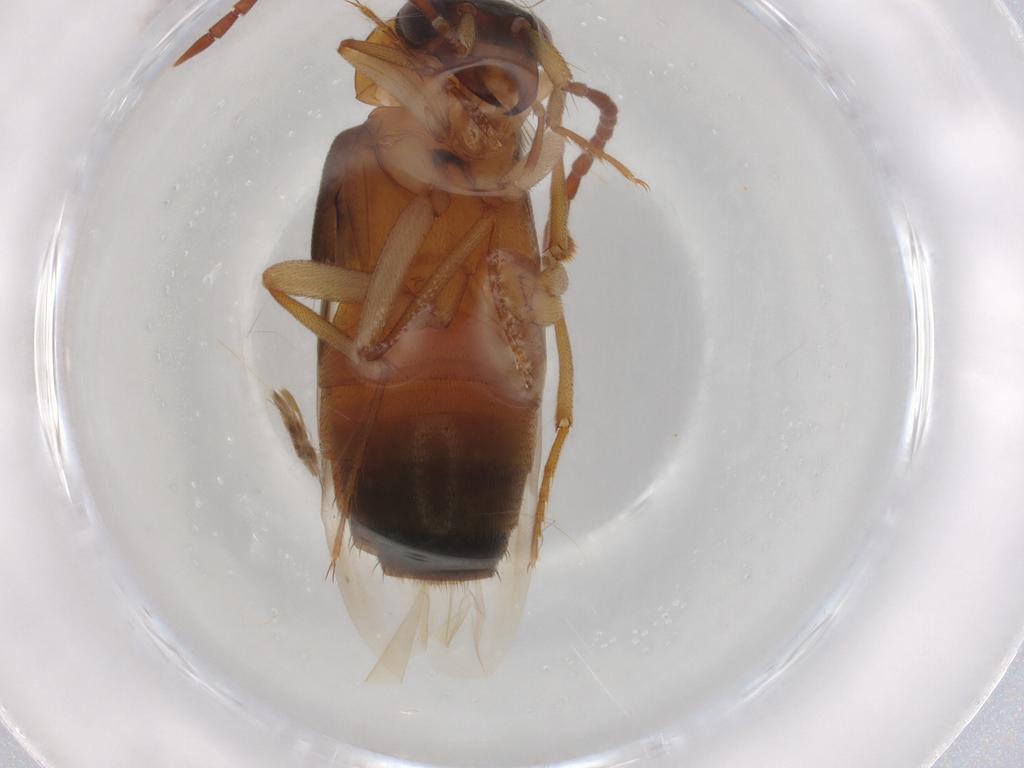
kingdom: Animalia
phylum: Arthropoda
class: Insecta
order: Coleoptera
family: Staphylinidae
